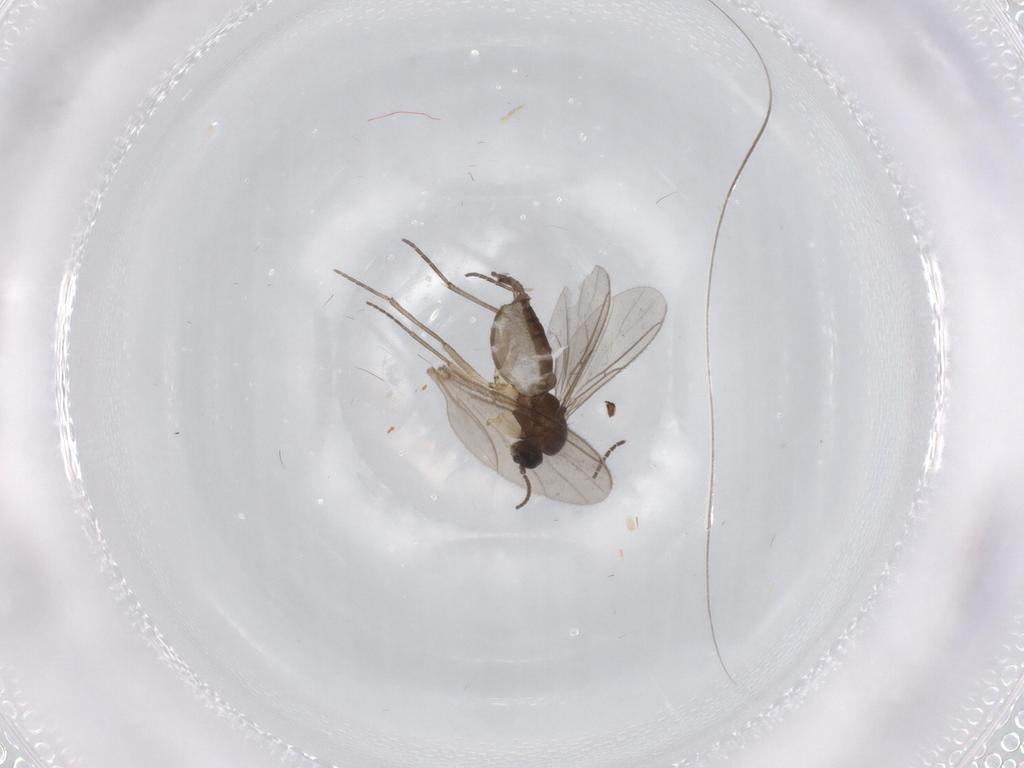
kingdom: Animalia
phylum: Arthropoda
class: Insecta
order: Diptera
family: Sciaridae
